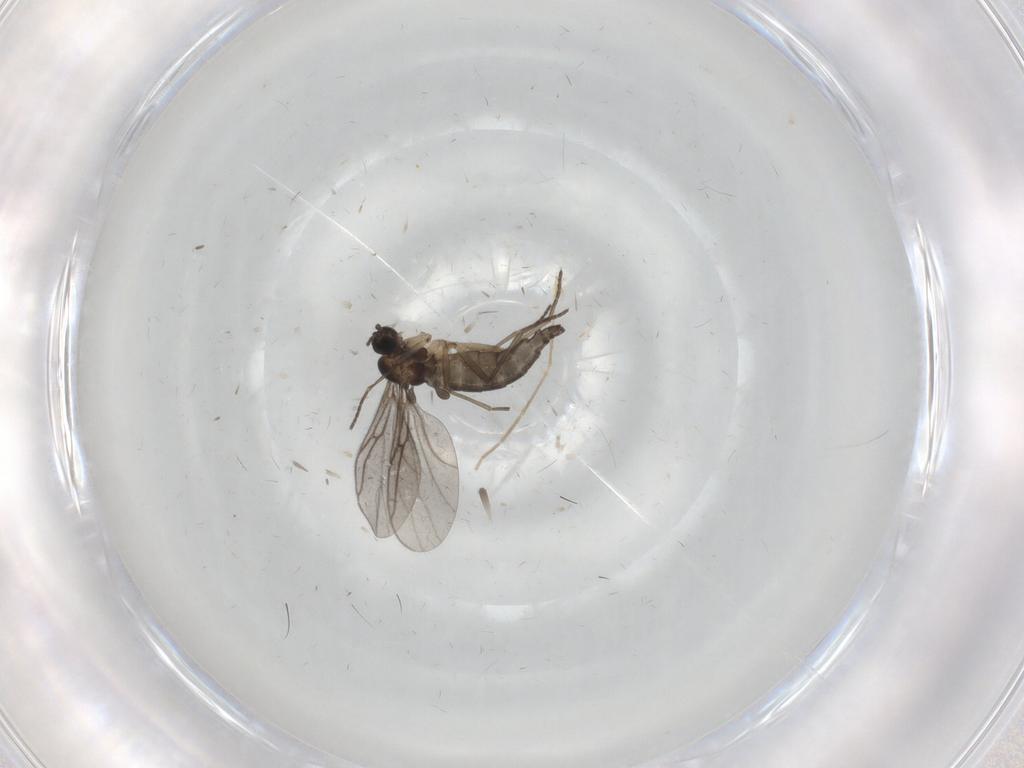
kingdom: Animalia
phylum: Arthropoda
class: Insecta
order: Diptera
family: Sciaridae
